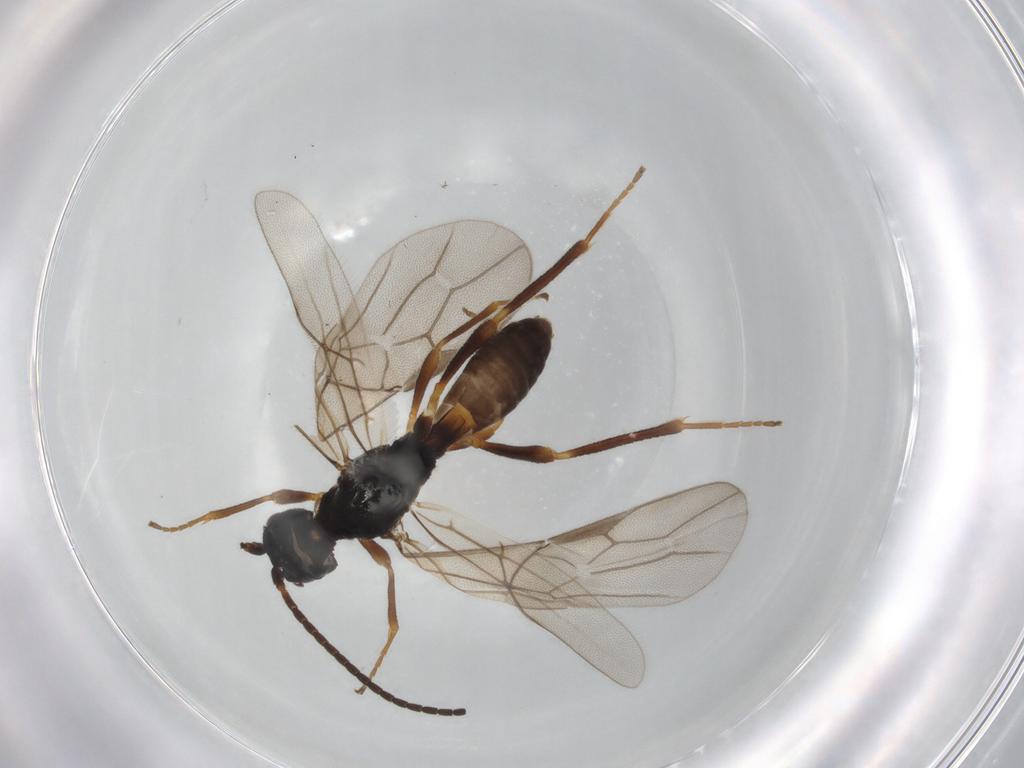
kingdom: Animalia
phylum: Arthropoda
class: Insecta
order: Hymenoptera
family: Braconidae
